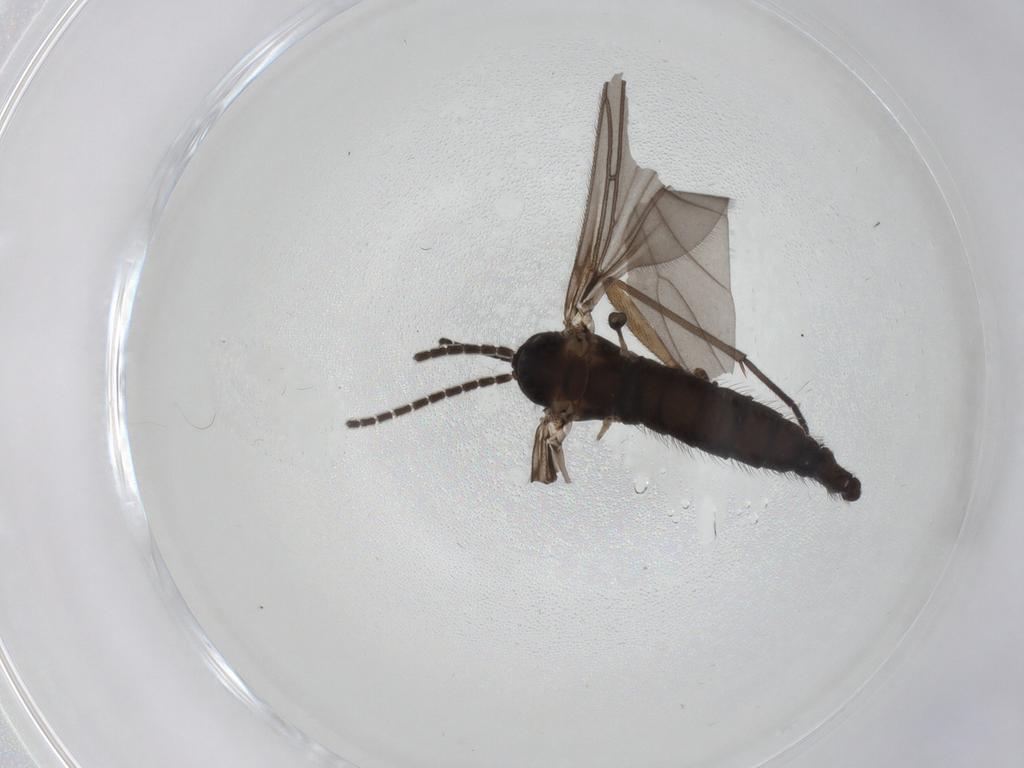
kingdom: Animalia
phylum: Arthropoda
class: Insecta
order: Diptera
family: Sciaridae
